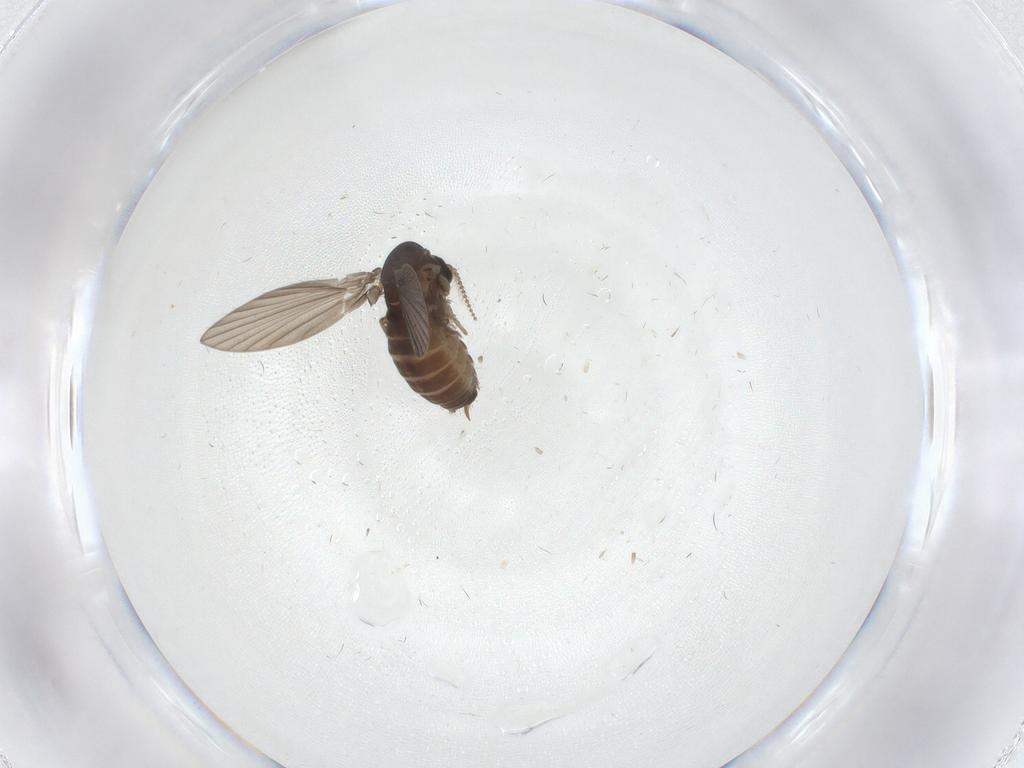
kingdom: Animalia
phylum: Arthropoda
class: Insecta
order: Diptera
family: Psychodidae
